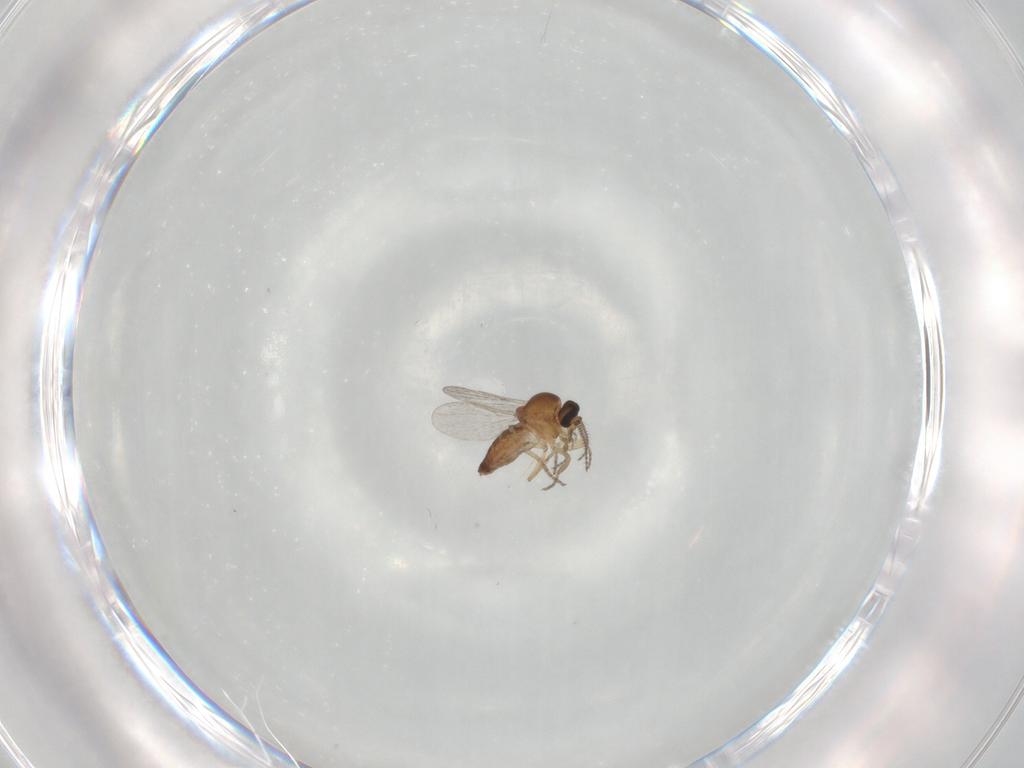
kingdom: Animalia
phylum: Arthropoda
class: Insecta
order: Diptera
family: Ceratopogonidae
